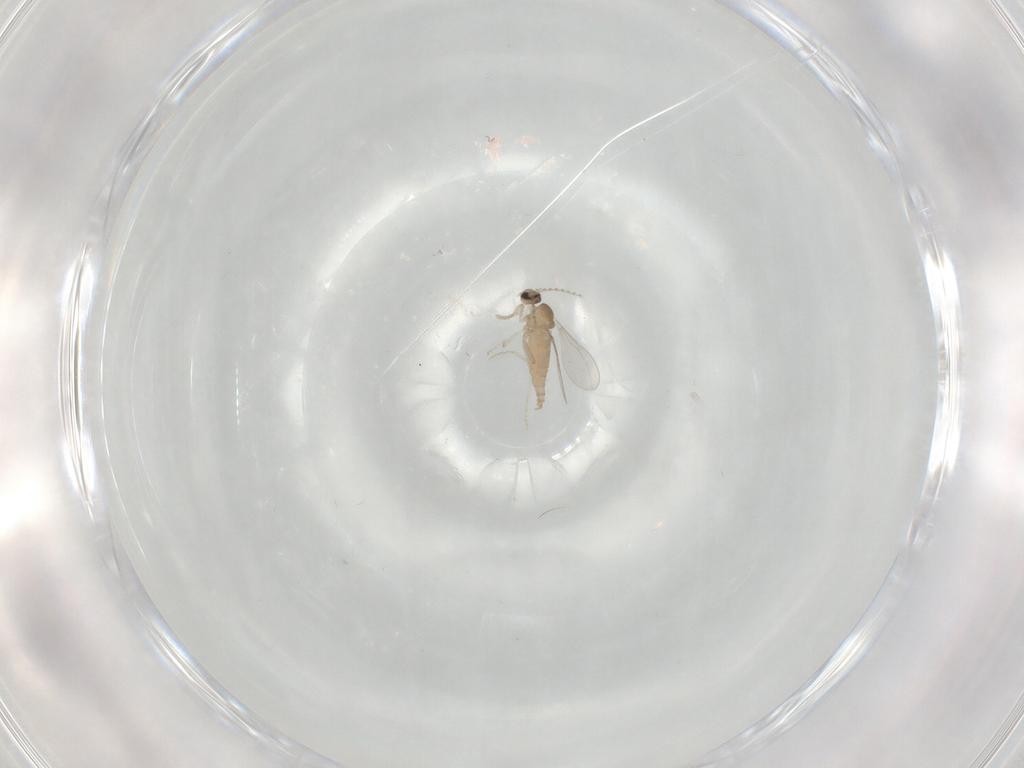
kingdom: Animalia
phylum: Arthropoda
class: Insecta
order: Diptera
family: Cecidomyiidae
